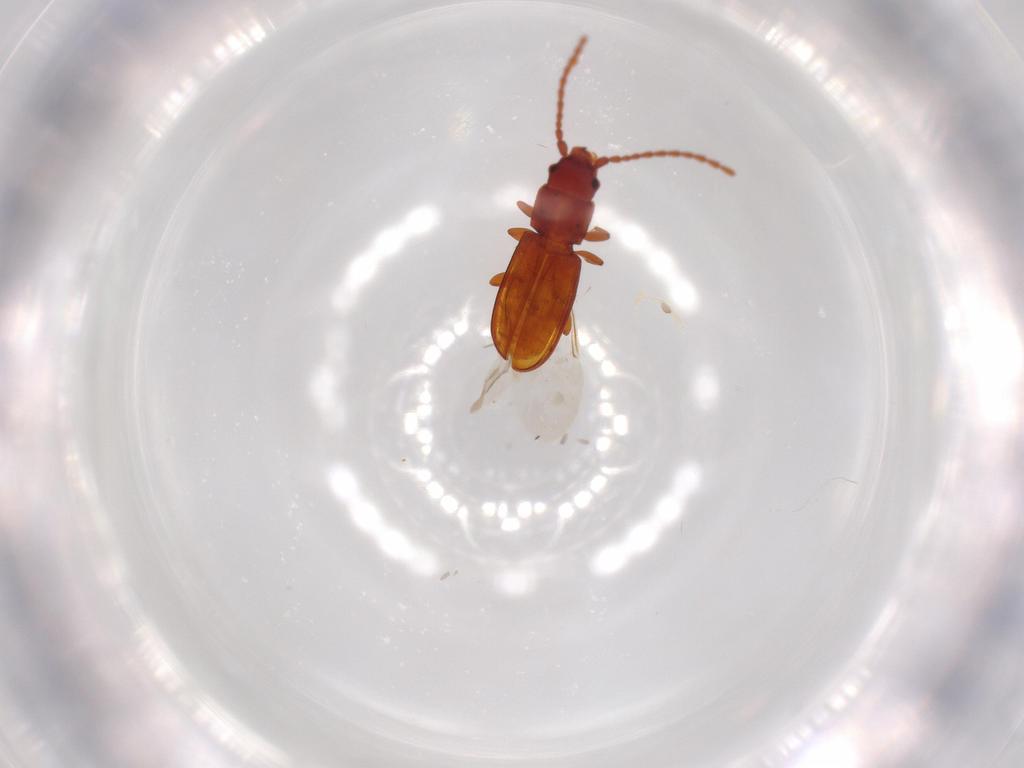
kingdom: Animalia
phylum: Arthropoda
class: Insecta
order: Coleoptera
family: Laemophloeidae
